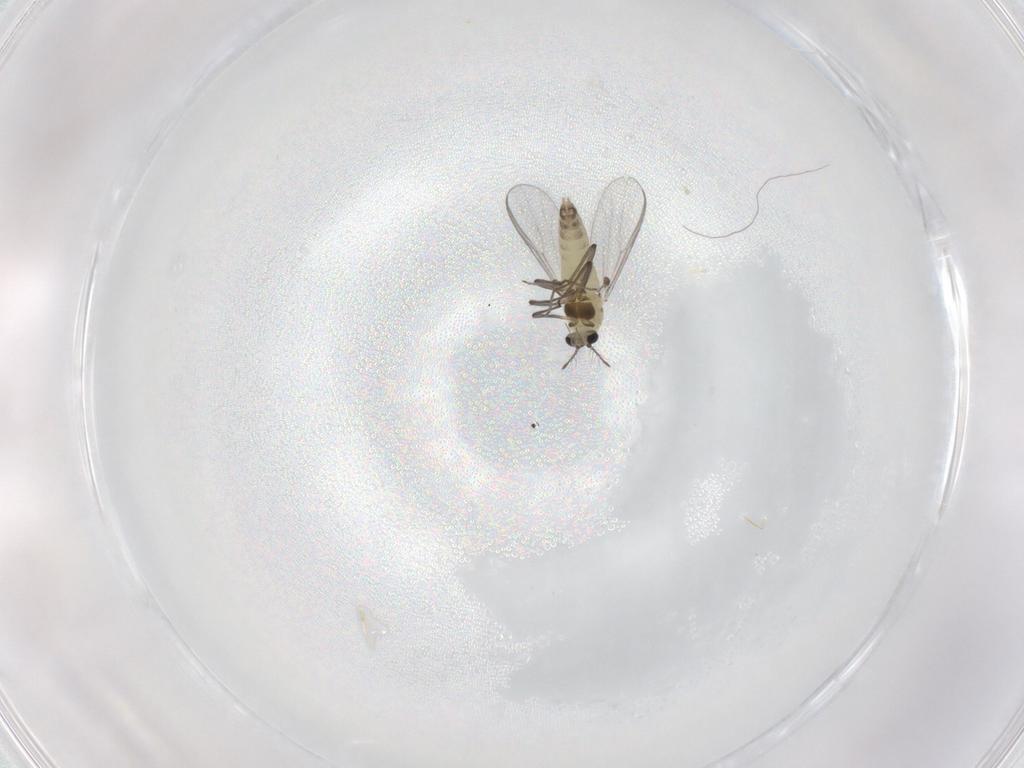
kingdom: Animalia
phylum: Arthropoda
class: Insecta
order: Diptera
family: Chironomidae
